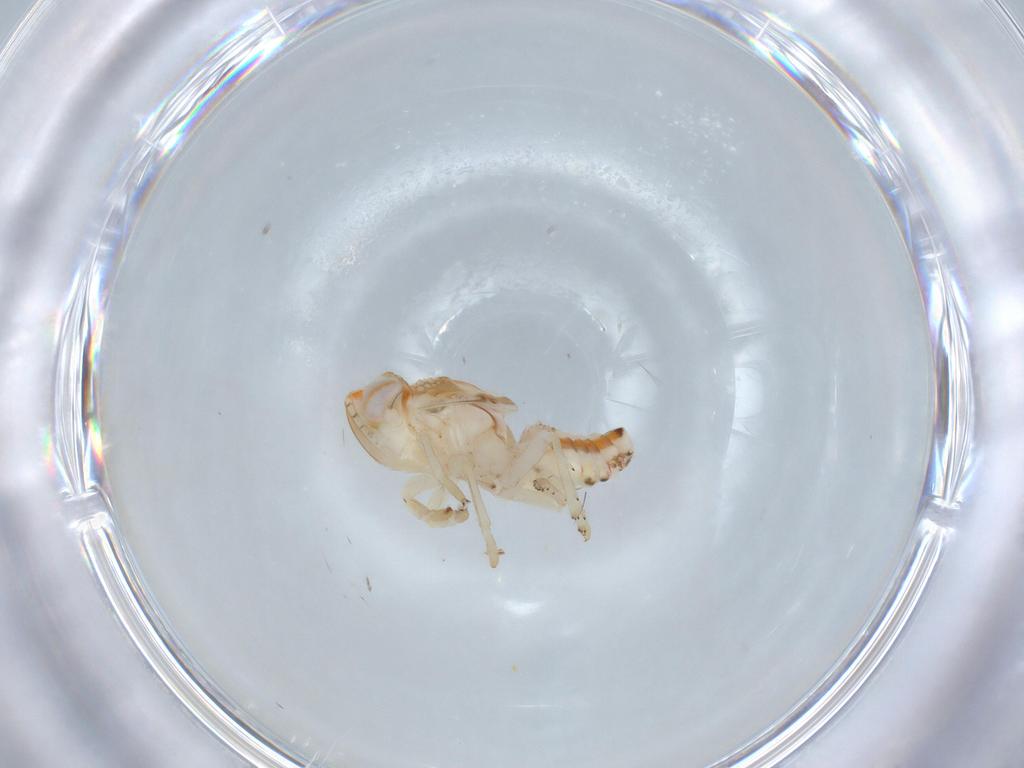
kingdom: Animalia
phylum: Arthropoda
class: Insecta
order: Hemiptera
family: Nogodinidae
